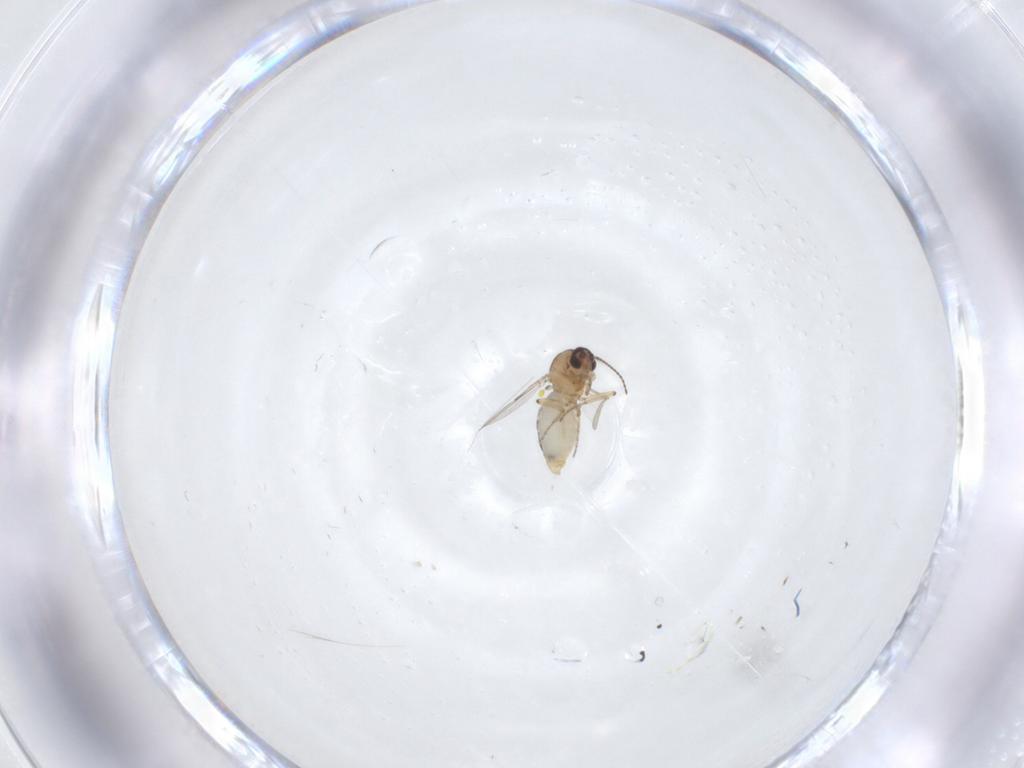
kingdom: Animalia
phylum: Arthropoda
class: Insecta
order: Diptera
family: Ceratopogonidae
